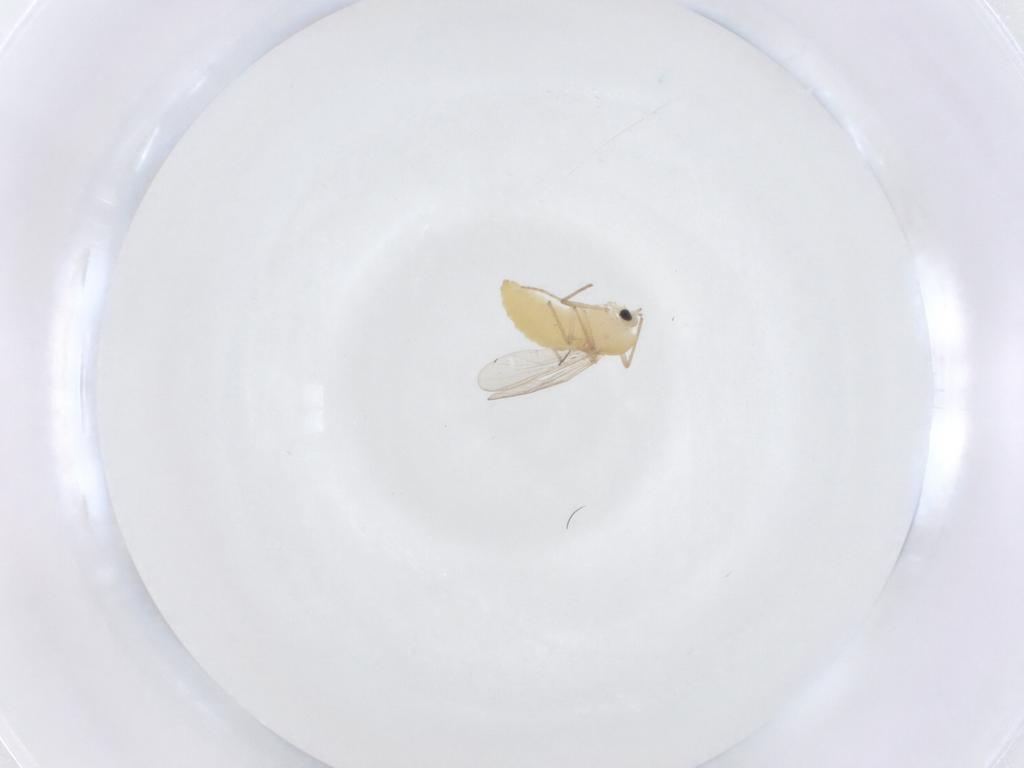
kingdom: Animalia
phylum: Arthropoda
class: Insecta
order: Diptera
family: Chironomidae
